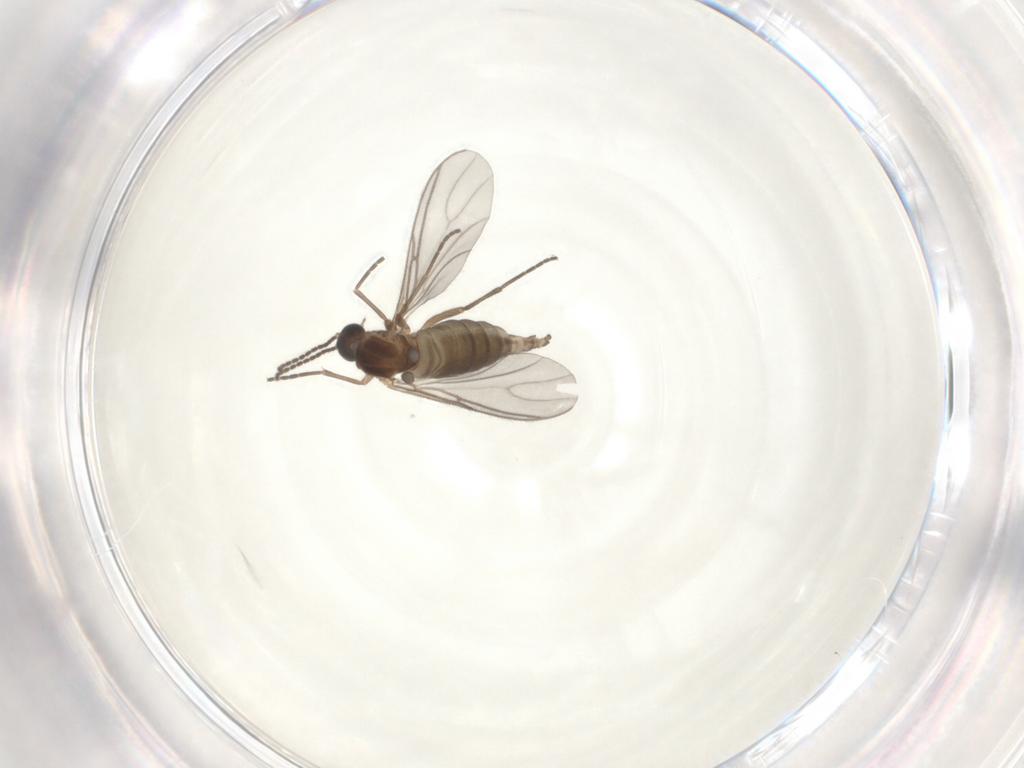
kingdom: Animalia
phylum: Arthropoda
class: Insecta
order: Diptera
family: Sciaridae
